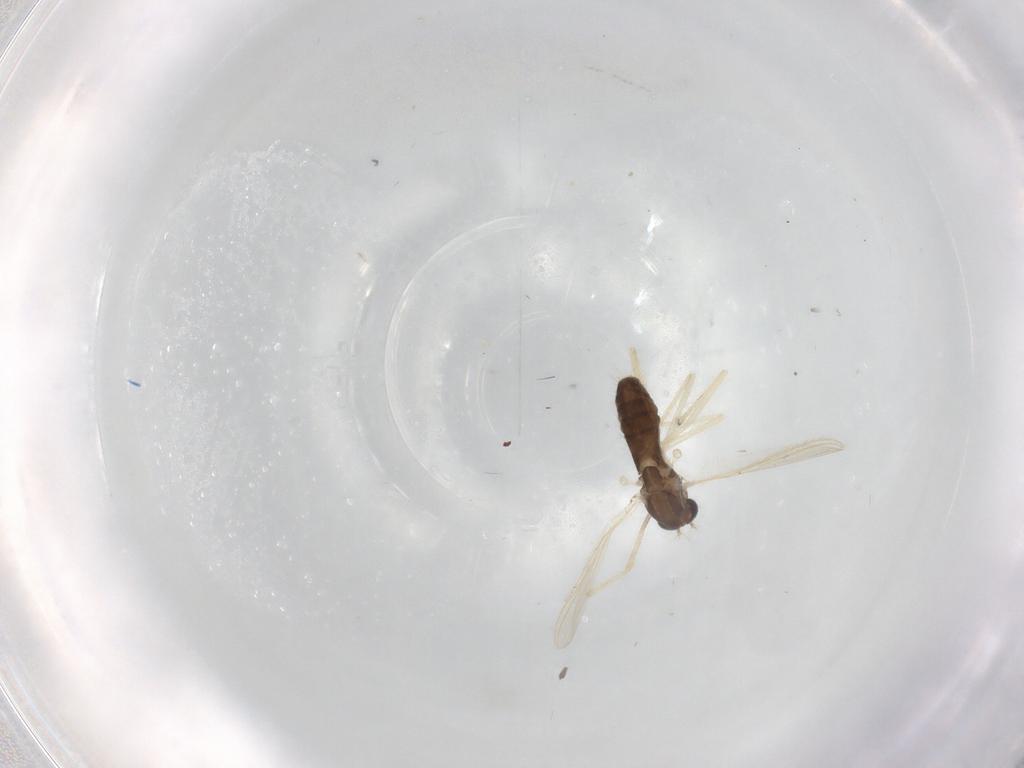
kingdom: Animalia
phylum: Arthropoda
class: Insecta
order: Diptera
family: Chironomidae
